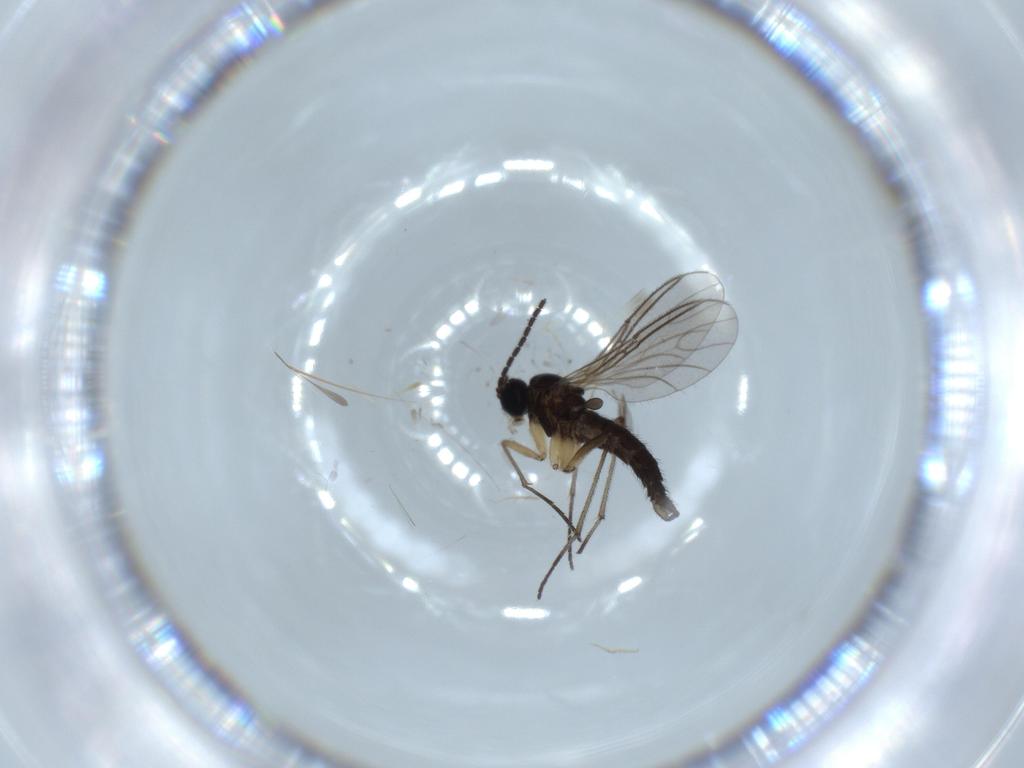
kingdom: Animalia
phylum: Arthropoda
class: Insecta
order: Diptera
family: Sciaridae
